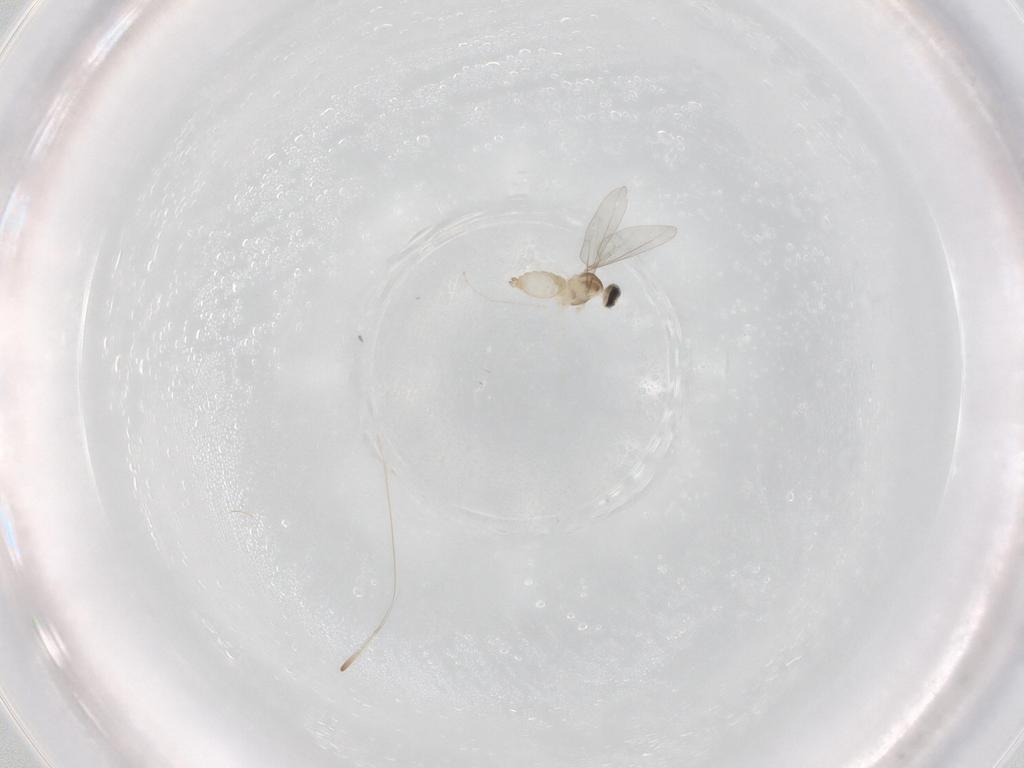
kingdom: Animalia
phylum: Arthropoda
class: Insecta
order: Diptera
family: Cecidomyiidae
